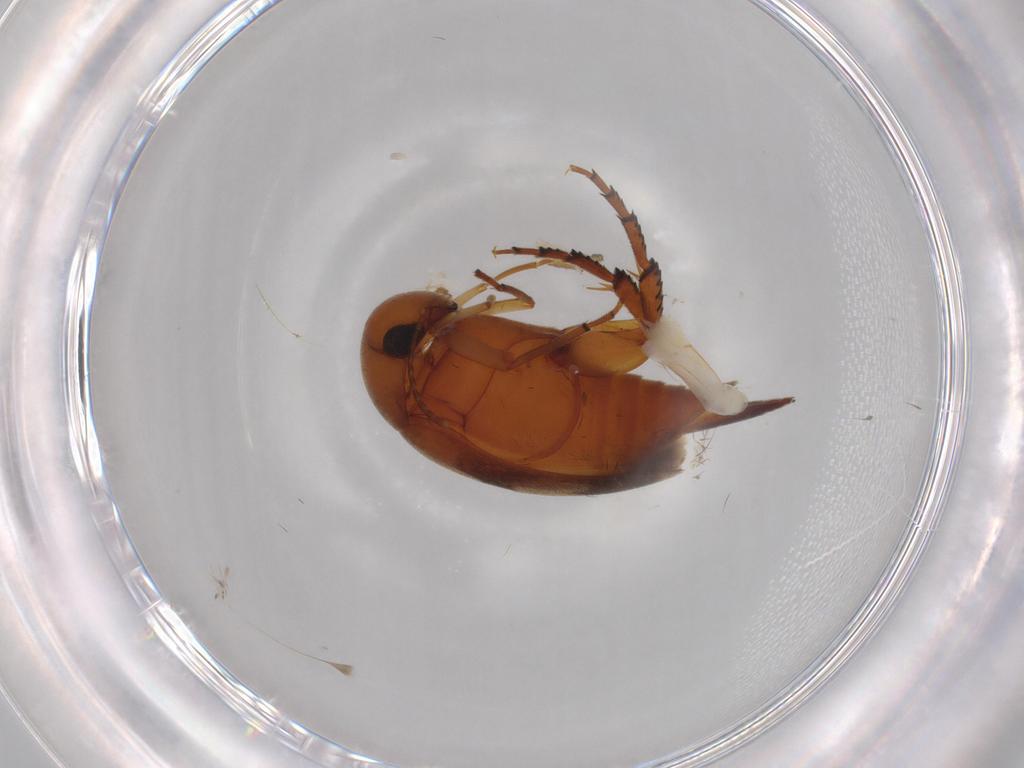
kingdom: Animalia
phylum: Arthropoda
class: Insecta
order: Coleoptera
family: Mordellidae
